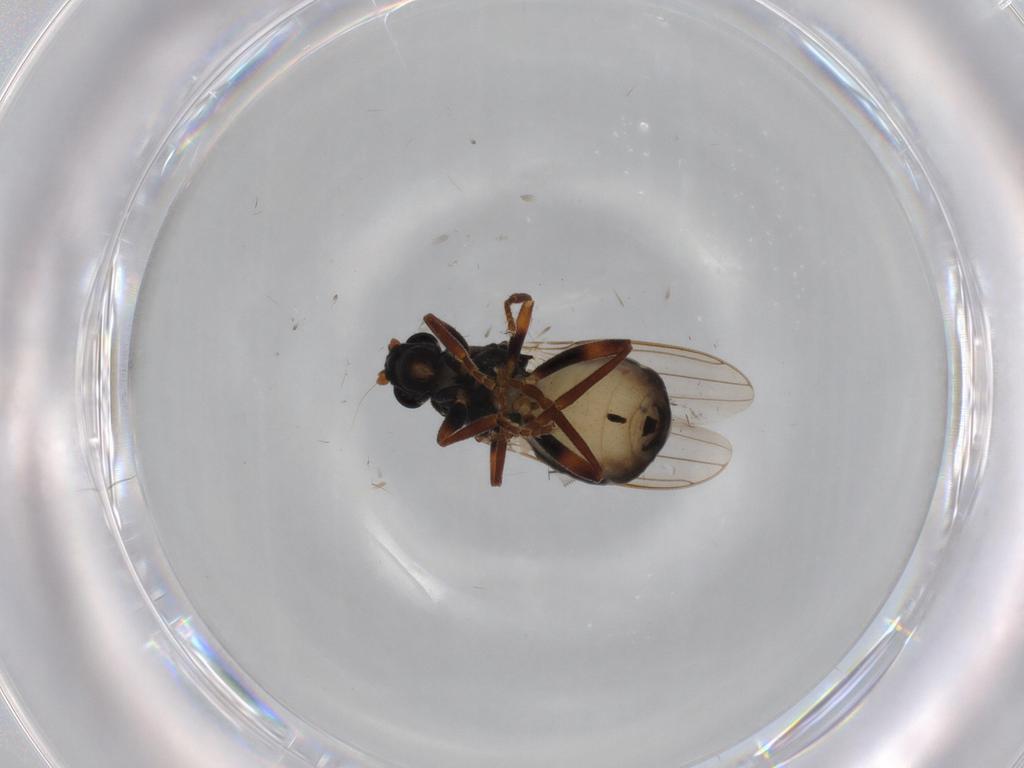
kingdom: Animalia
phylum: Arthropoda
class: Insecta
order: Diptera
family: Sphaeroceridae
